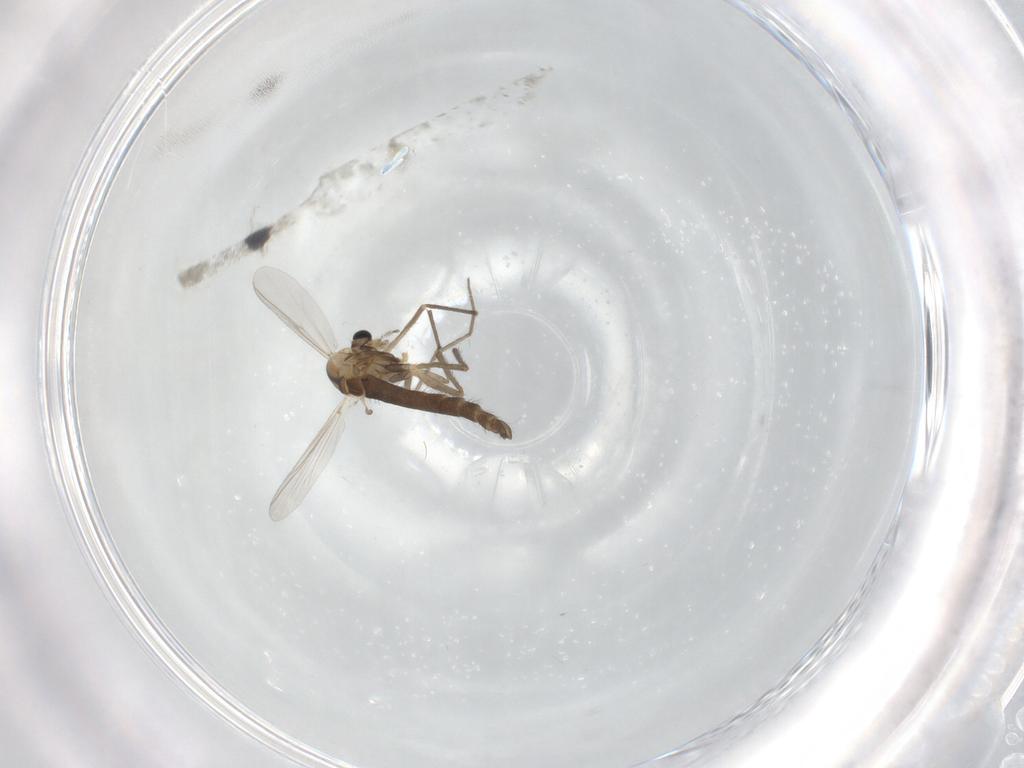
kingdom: Animalia
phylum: Arthropoda
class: Insecta
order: Diptera
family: Chironomidae
